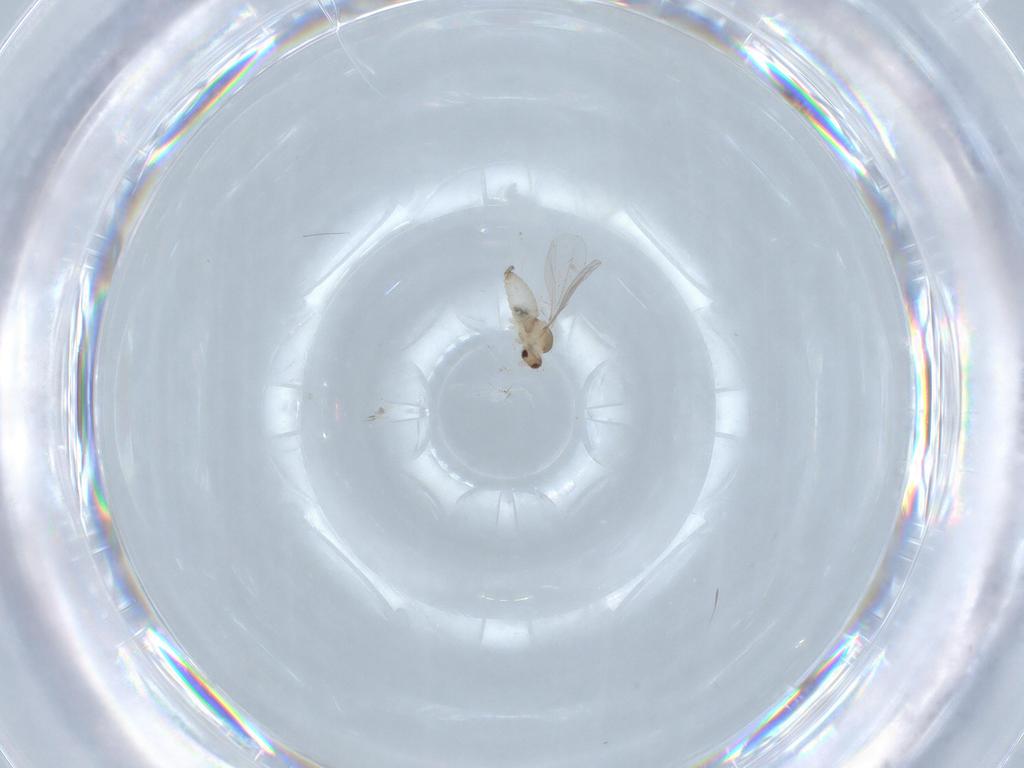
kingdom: Animalia
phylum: Arthropoda
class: Insecta
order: Diptera
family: Cecidomyiidae
